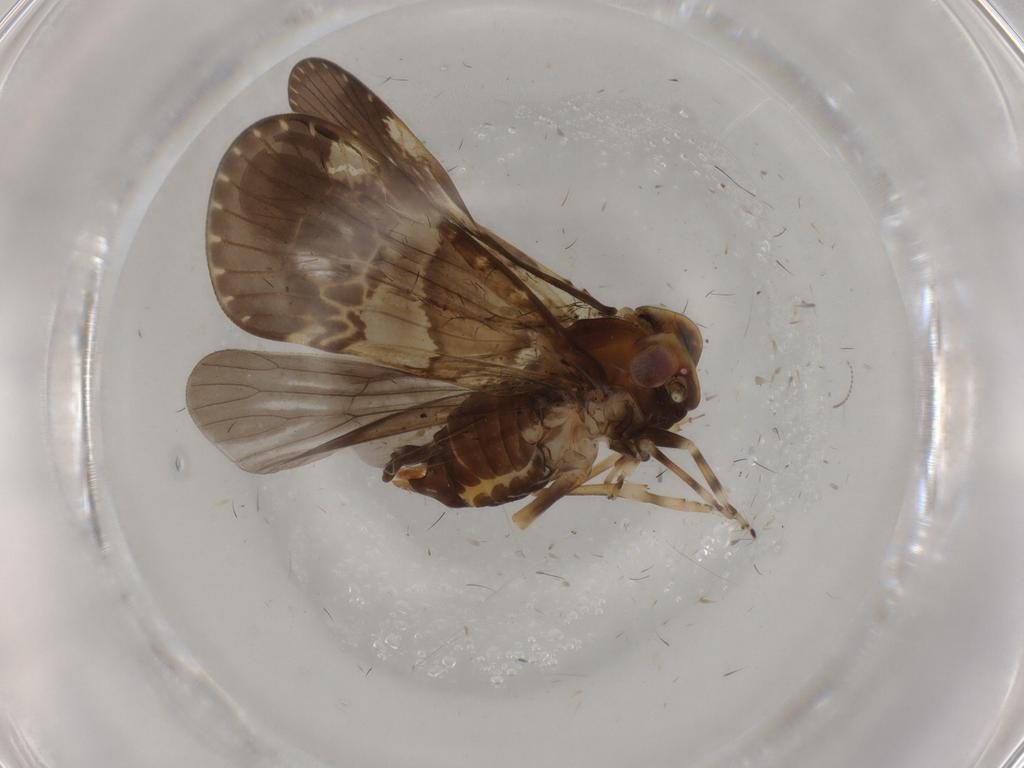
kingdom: Animalia
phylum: Arthropoda
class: Insecta
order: Hemiptera
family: Cixiidae
